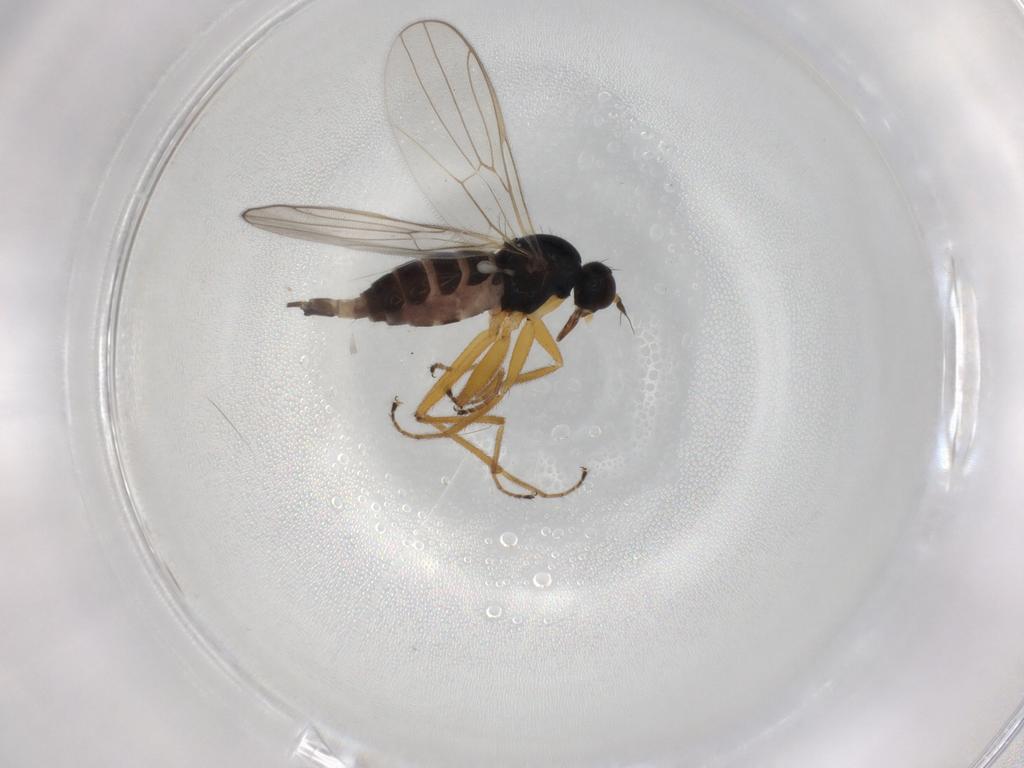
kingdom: Animalia
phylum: Arthropoda
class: Insecta
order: Diptera
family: Hybotidae
